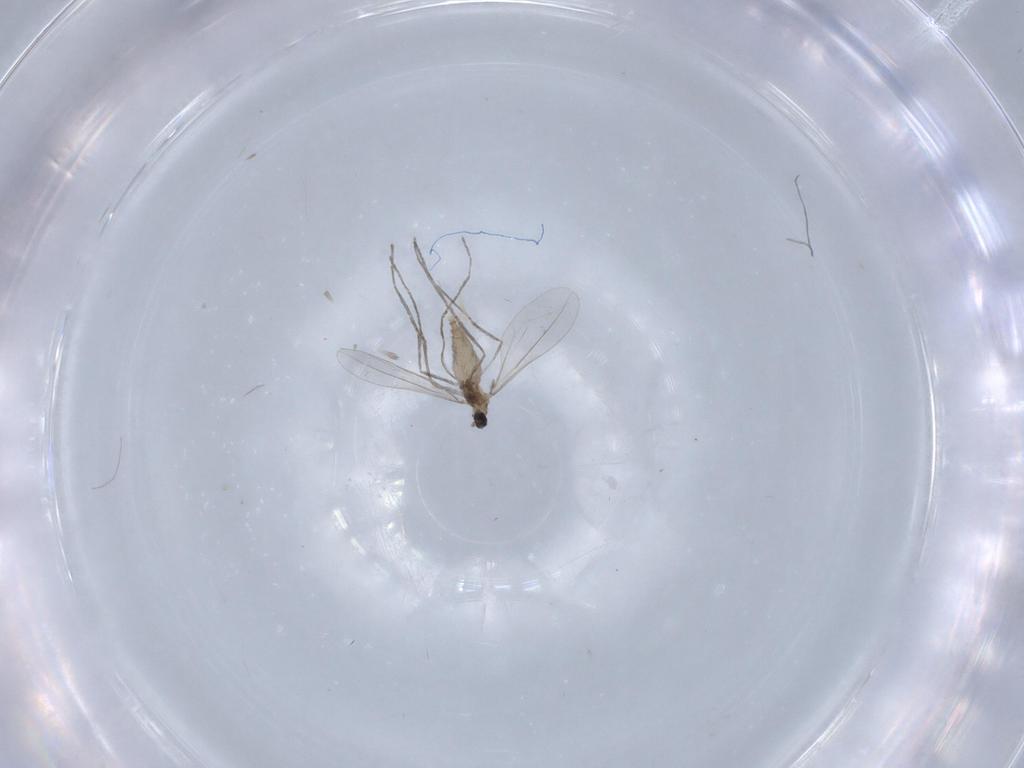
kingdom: Animalia
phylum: Arthropoda
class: Insecta
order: Diptera
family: Cecidomyiidae
